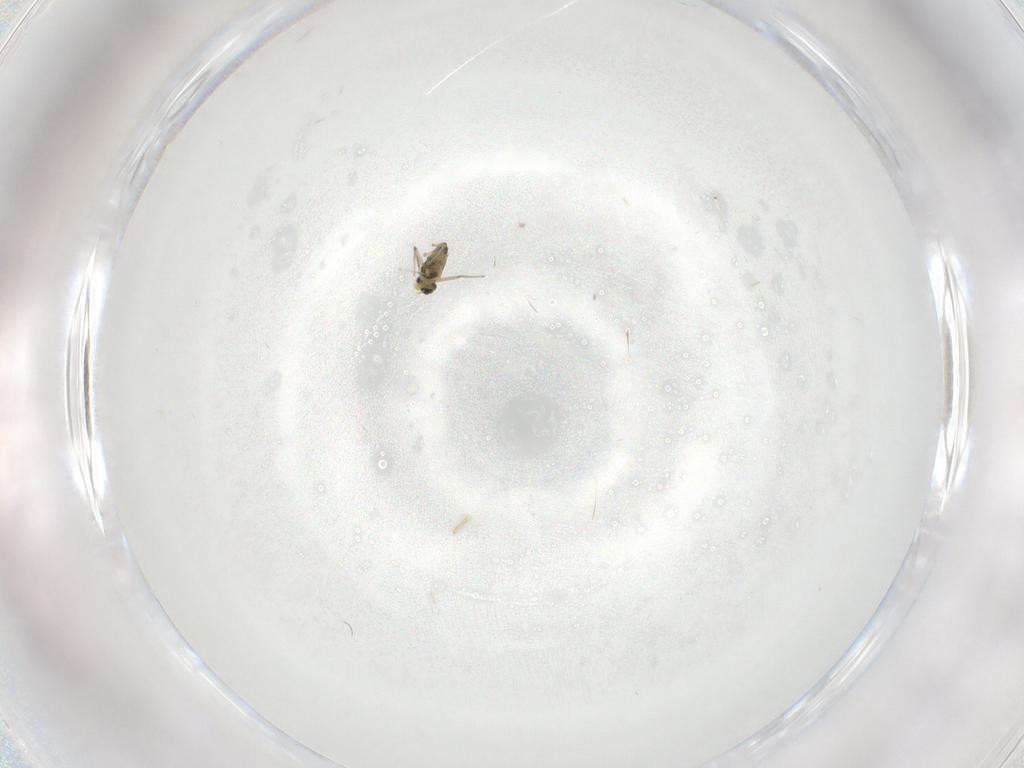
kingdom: Animalia
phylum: Arthropoda
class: Insecta
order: Diptera
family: Chironomidae
